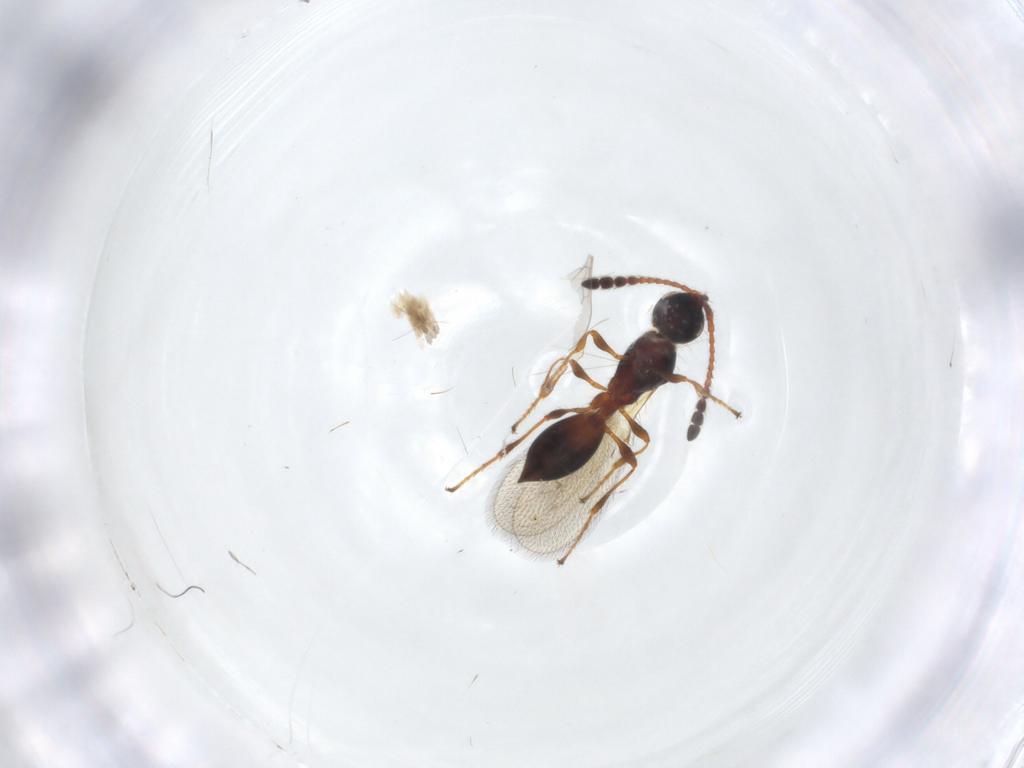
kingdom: Animalia
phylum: Arthropoda
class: Insecta
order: Hymenoptera
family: Diapriidae
